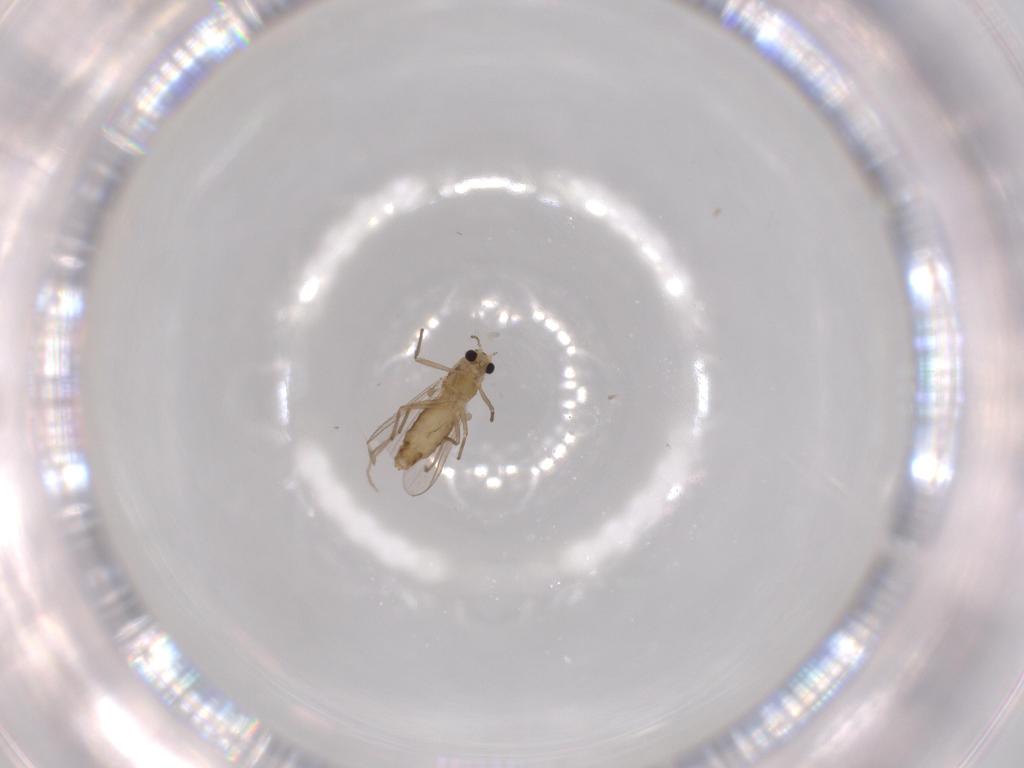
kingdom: Animalia
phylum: Arthropoda
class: Insecta
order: Diptera
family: Chironomidae
